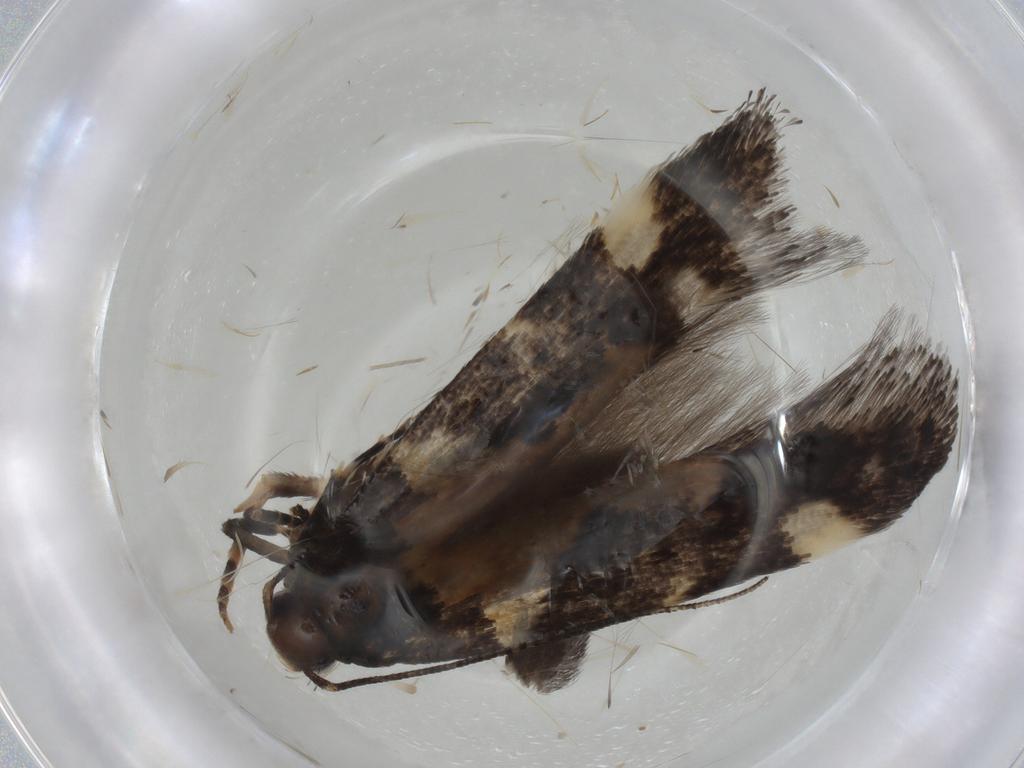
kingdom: Animalia
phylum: Arthropoda
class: Insecta
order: Lepidoptera
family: Gelechiidae
